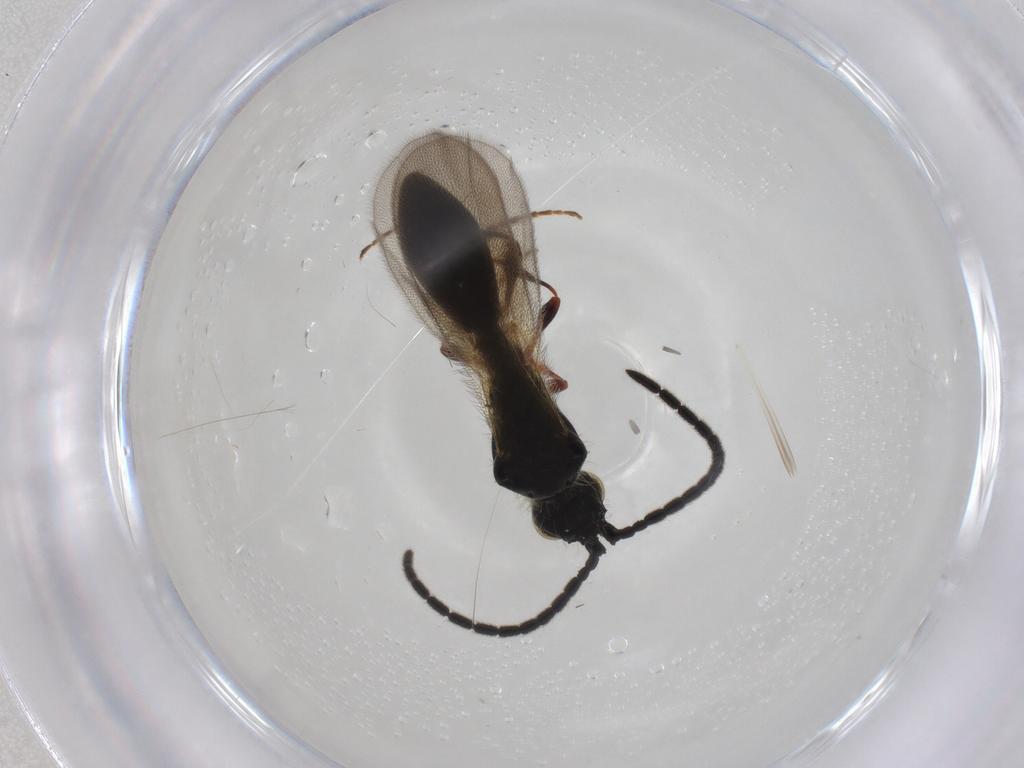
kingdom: Animalia
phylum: Arthropoda
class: Insecta
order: Hymenoptera
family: Diapriidae
